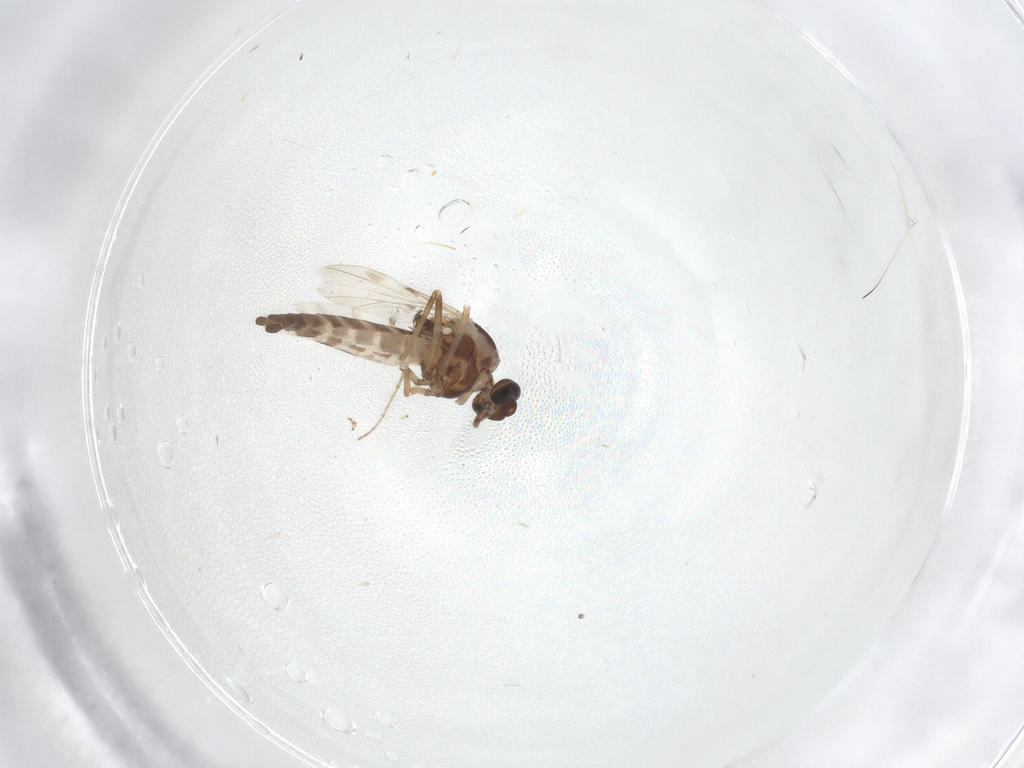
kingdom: Animalia
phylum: Arthropoda
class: Insecta
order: Diptera
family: Ceratopogonidae
